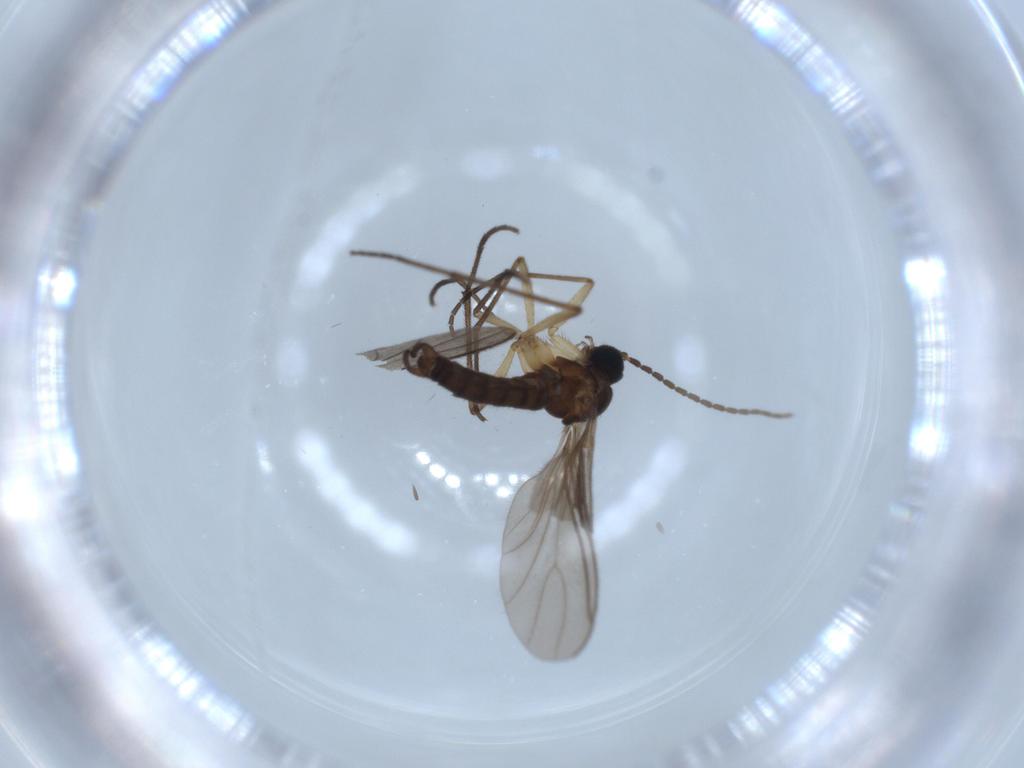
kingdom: Animalia
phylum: Arthropoda
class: Insecta
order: Diptera
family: Sciaridae
